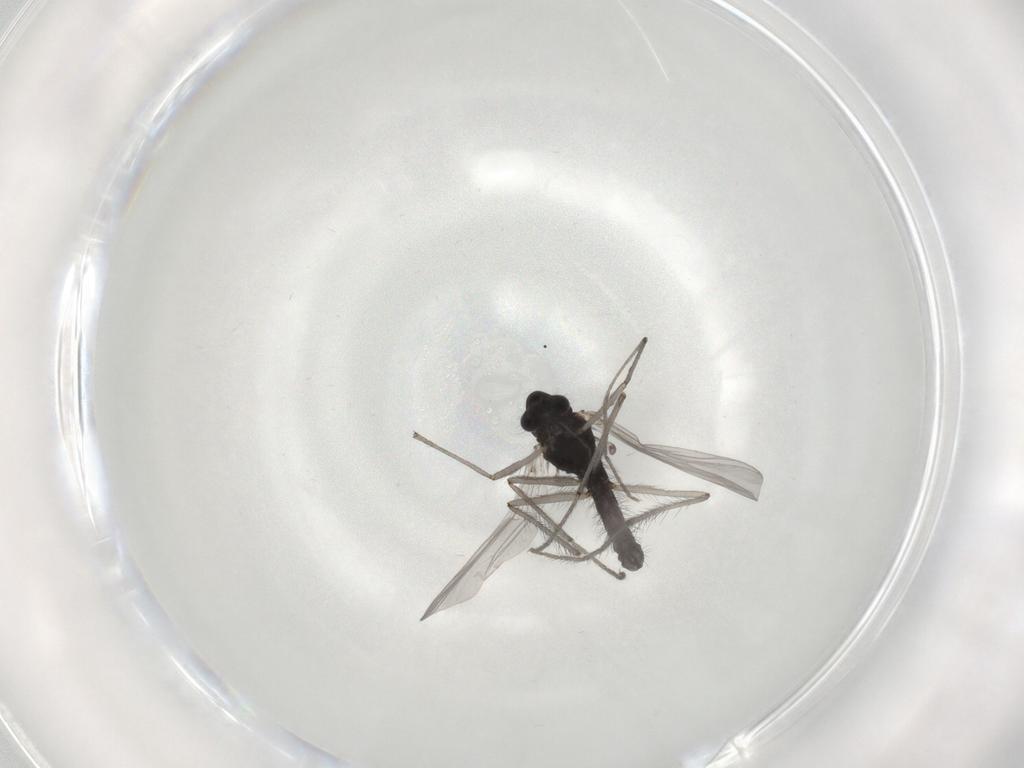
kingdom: Animalia
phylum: Arthropoda
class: Insecta
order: Diptera
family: Chironomidae
